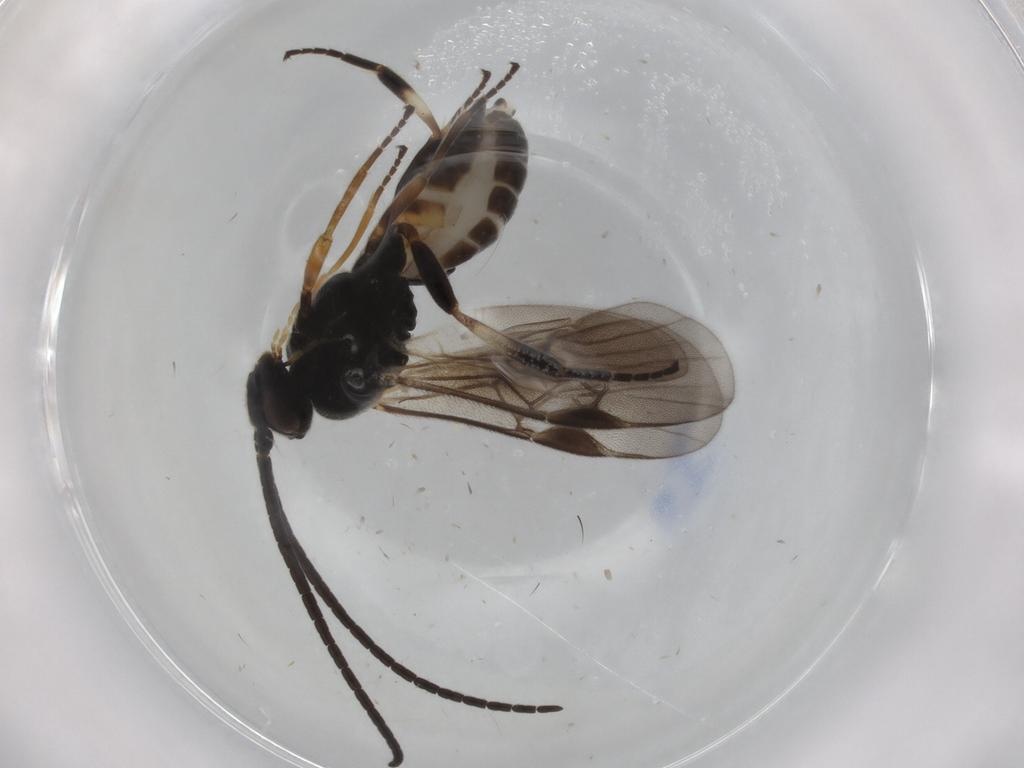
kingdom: Animalia
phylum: Arthropoda
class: Insecta
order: Hymenoptera
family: Braconidae
